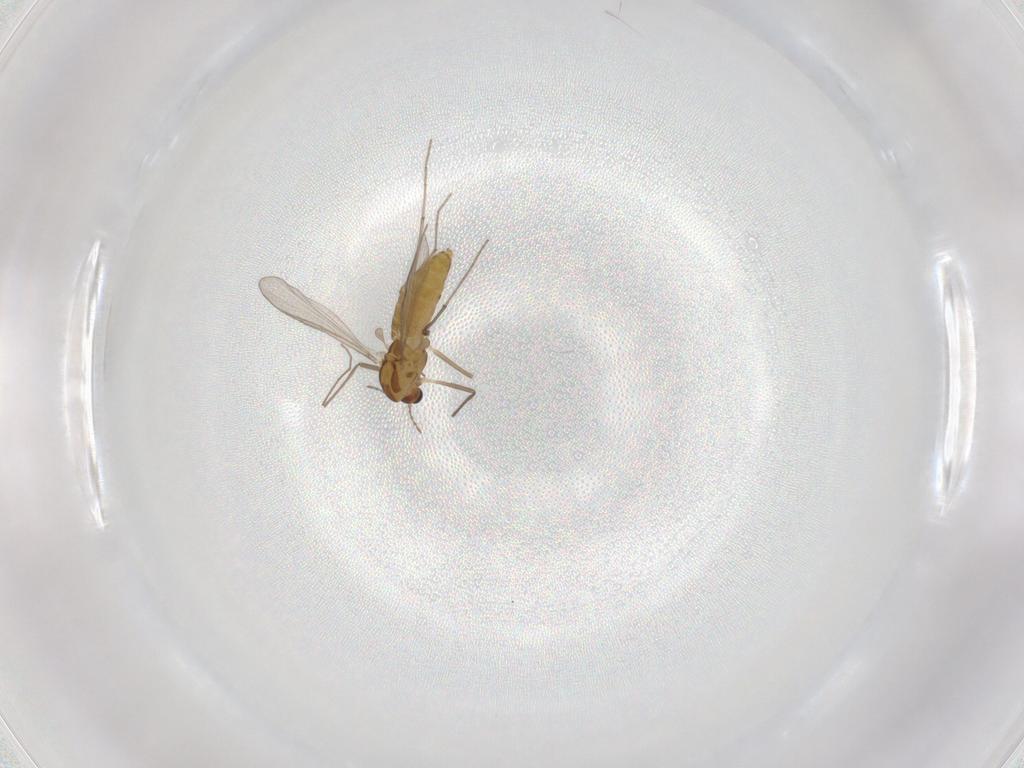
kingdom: Animalia
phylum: Arthropoda
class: Insecta
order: Diptera
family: Chironomidae
